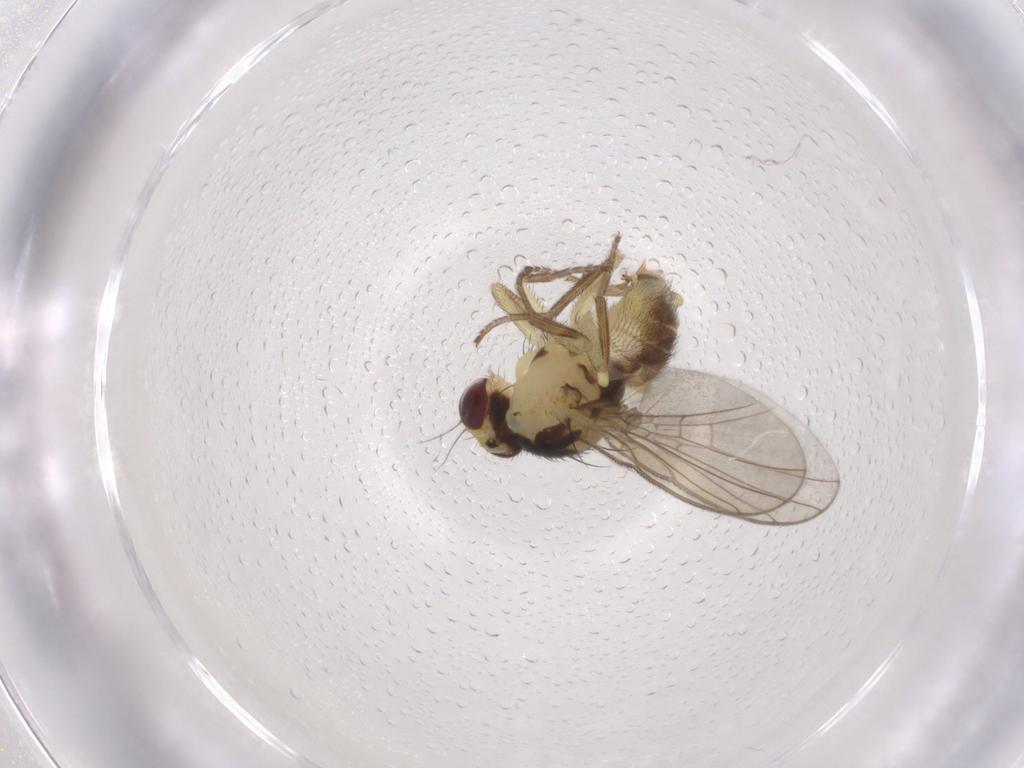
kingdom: Animalia
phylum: Arthropoda
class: Insecta
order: Diptera
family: Agromyzidae
